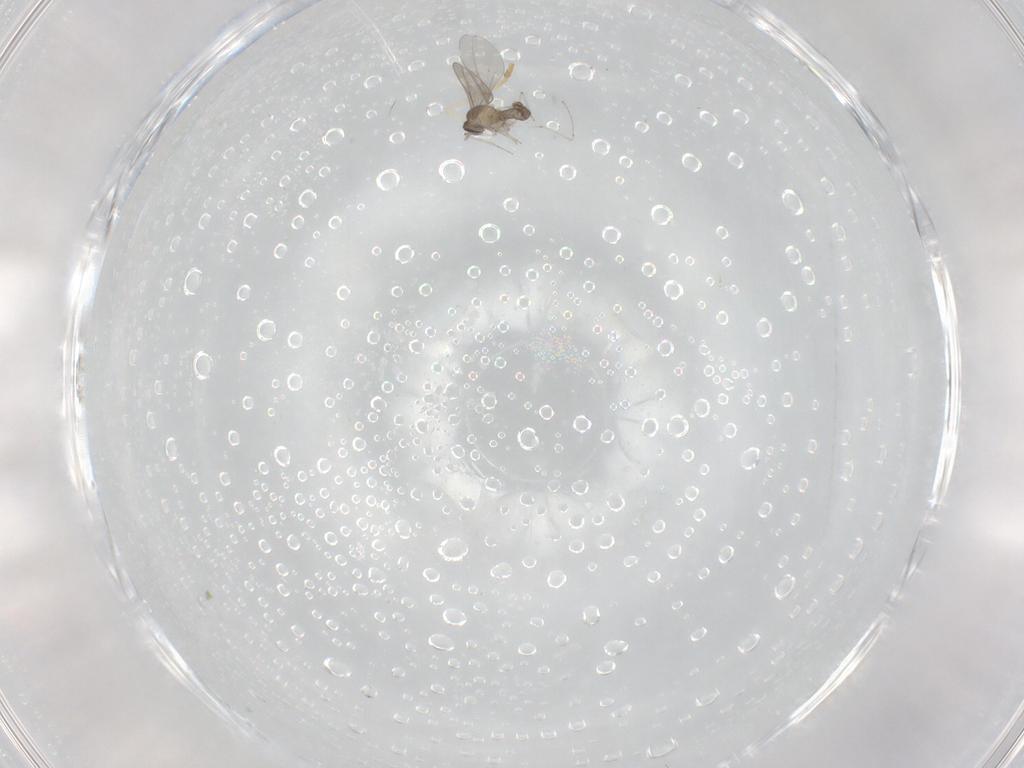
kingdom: Animalia
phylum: Arthropoda
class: Insecta
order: Diptera
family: Cecidomyiidae
